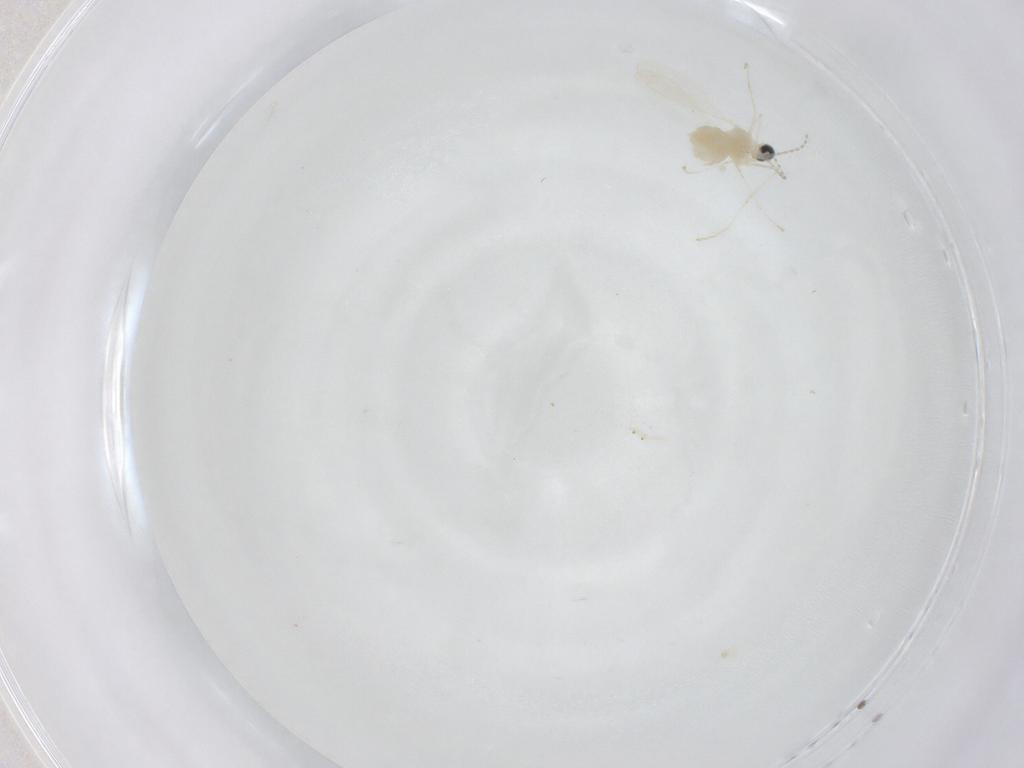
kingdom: Animalia
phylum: Arthropoda
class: Insecta
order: Diptera
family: Cecidomyiidae
